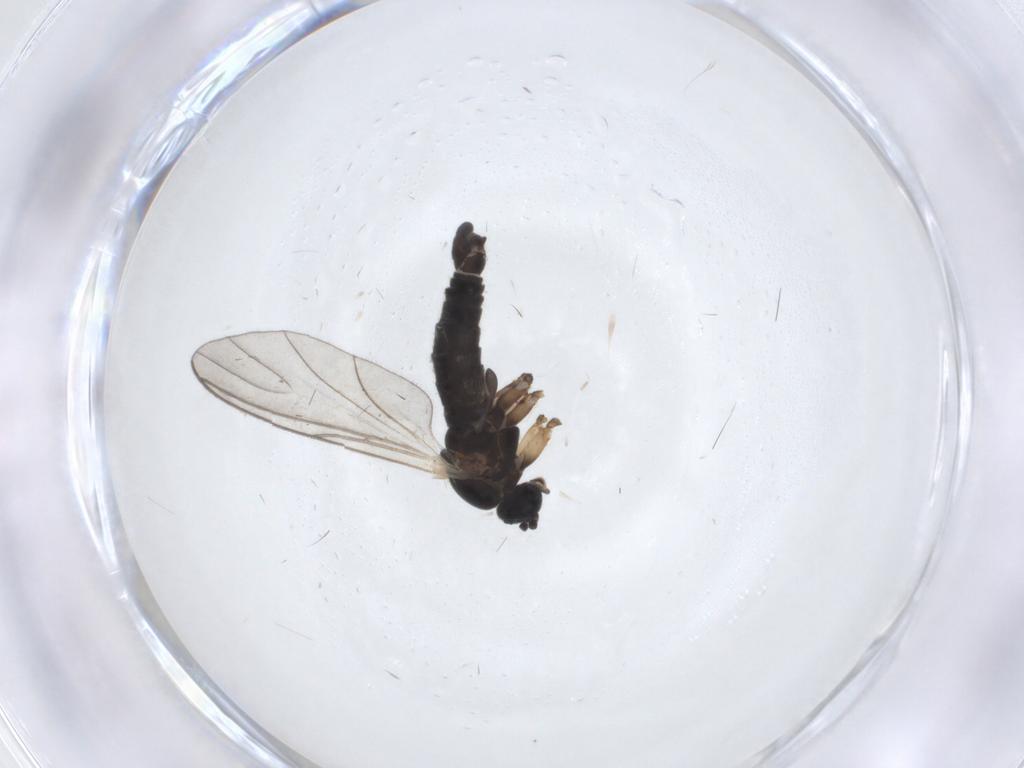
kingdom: Animalia
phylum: Arthropoda
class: Insecta
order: Diptera
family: Sciaridae
